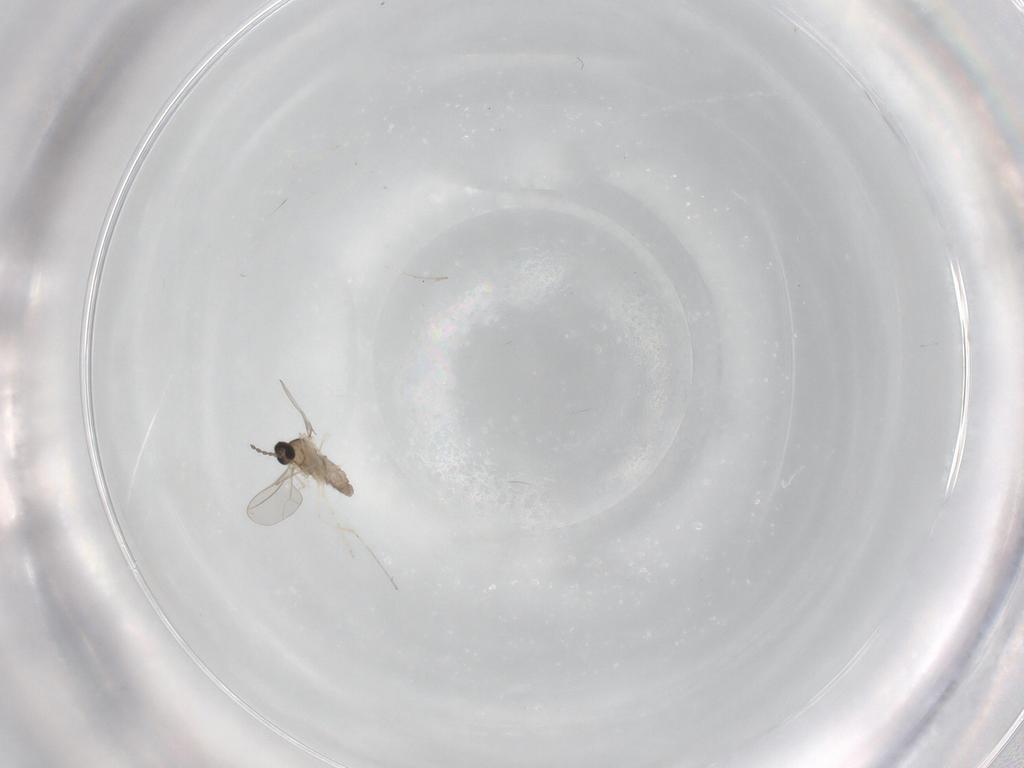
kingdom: Animalia
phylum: Arthropoda
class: Insecta
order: Diptera
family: Cecidomyiidae
